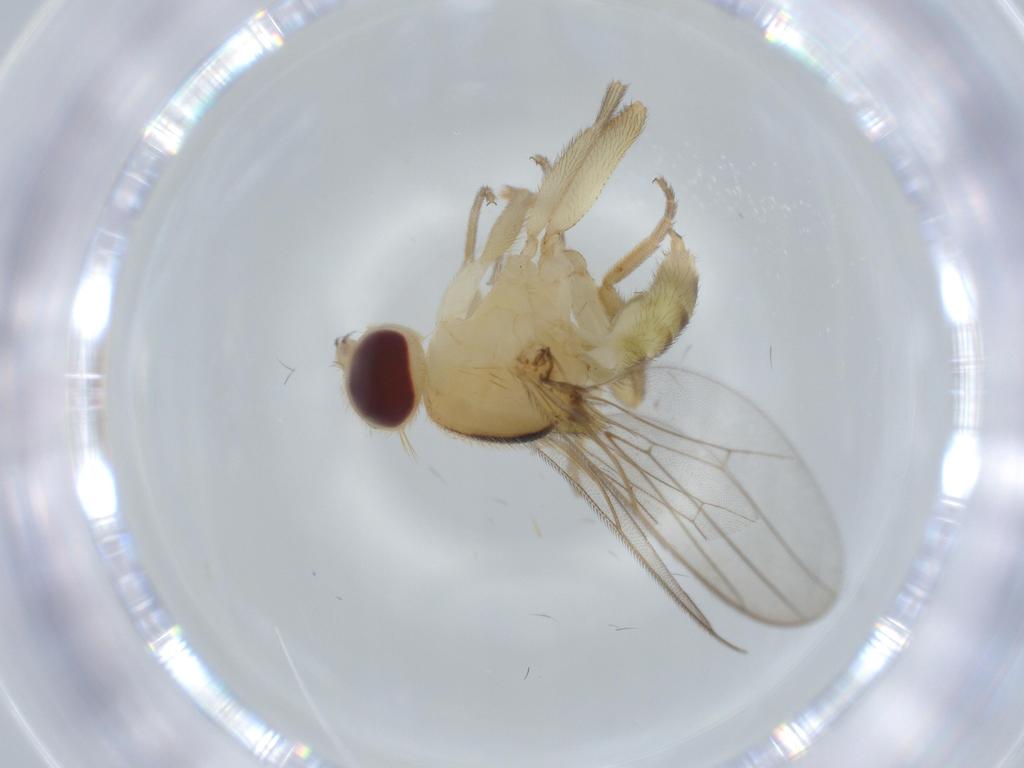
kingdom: Animalia
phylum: Arthropoda
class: Insecta
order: Diptera
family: Chloropidae
